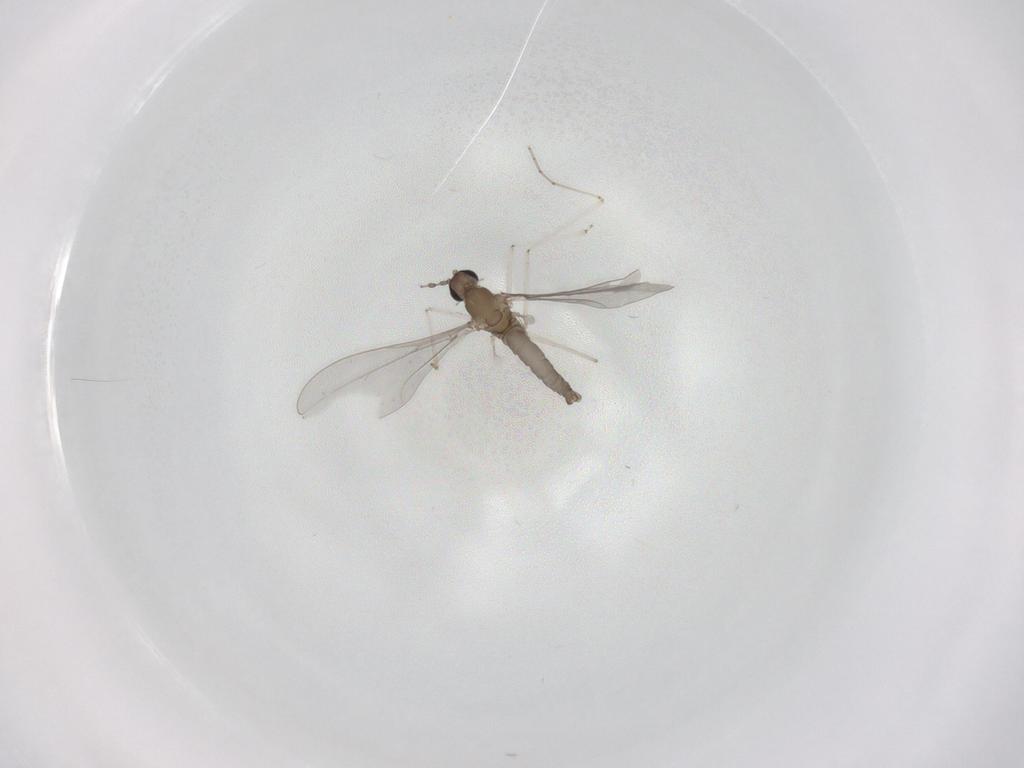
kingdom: Animalia
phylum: Arthropoda
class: Insecta
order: Diptera
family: Cecidomyiidae
